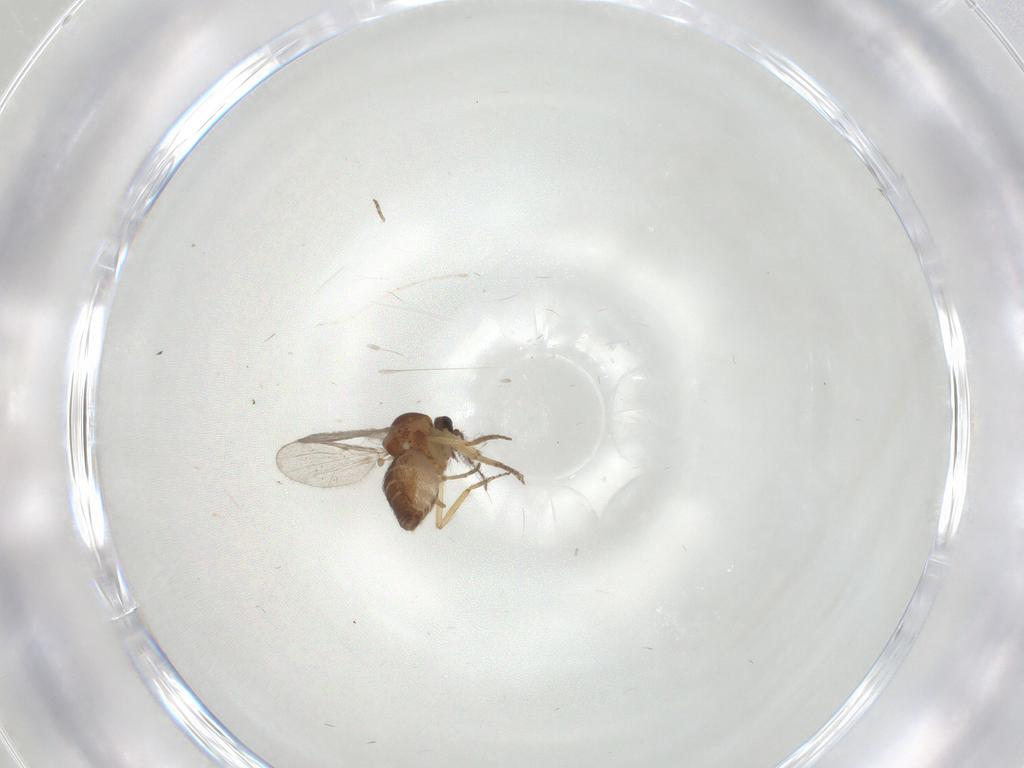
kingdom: Animalia
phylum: Arthropoda
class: Insecta
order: Diptera
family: Ceratopogonidae
